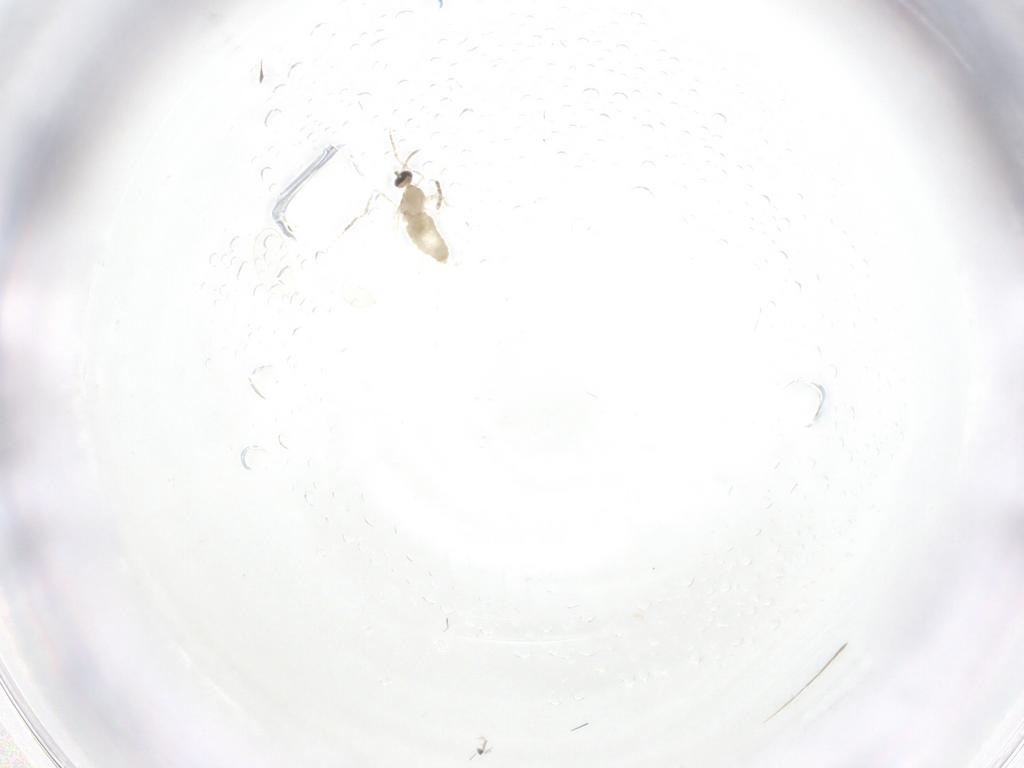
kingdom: Animalia
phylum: Arthropoda
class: Insecta
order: Diptera
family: Cecidomyiidae
